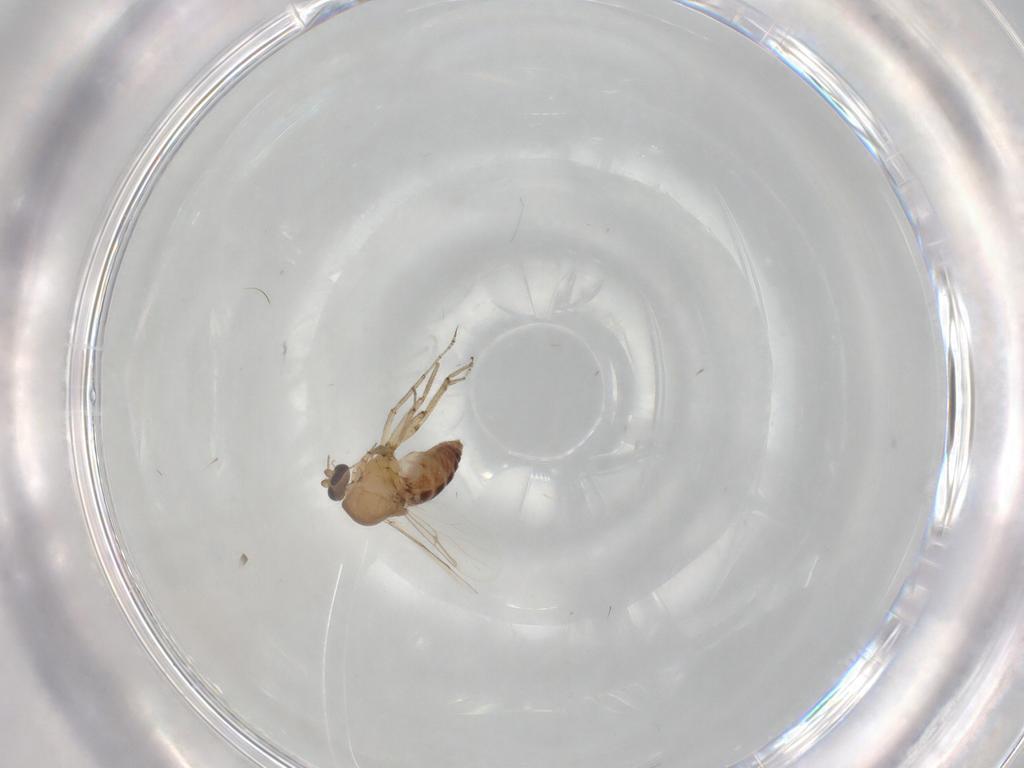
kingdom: Animalia
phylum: Arthropoda
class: Insecta
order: Diptera
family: Ceratopogonidae
